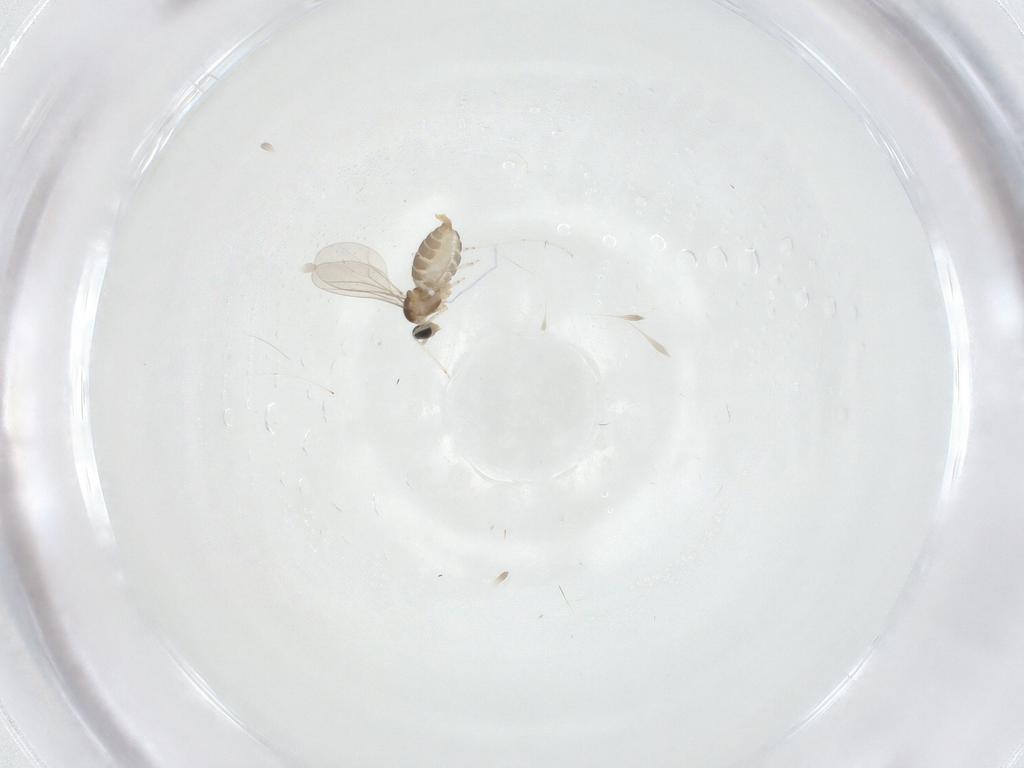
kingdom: Animalia
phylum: Arthropoda
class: Insecta
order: Diptera
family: Cecidomyiidae
